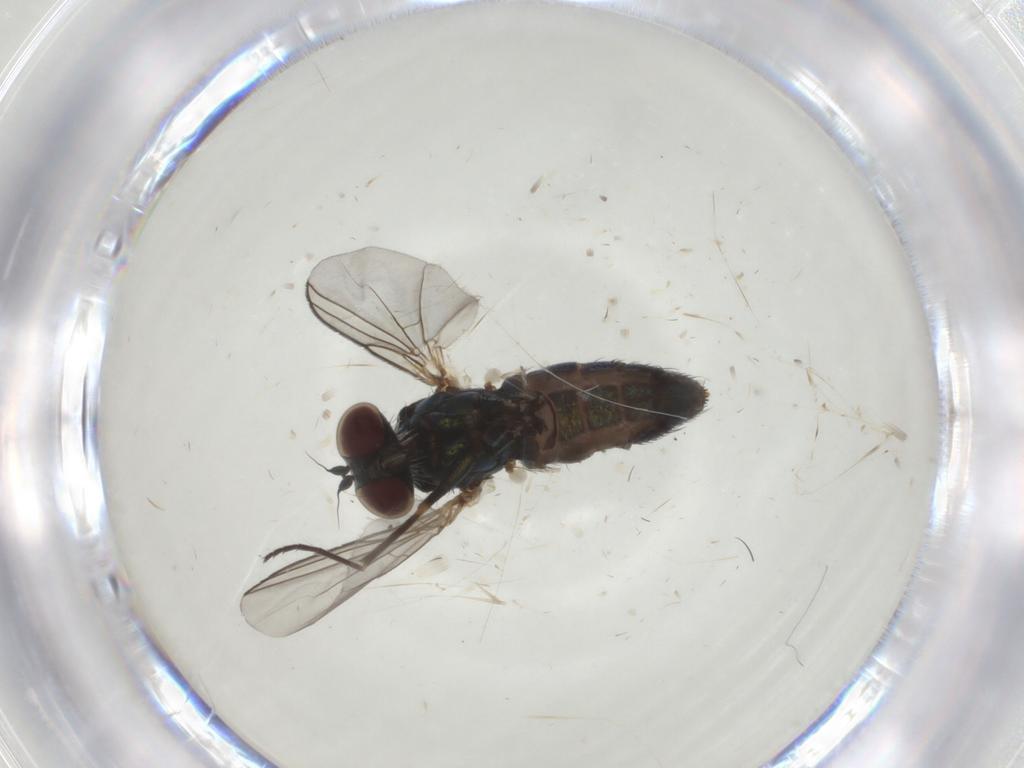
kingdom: Animalia
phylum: Arthropoda
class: Insecta
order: Diptera
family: Dolichopodidae
